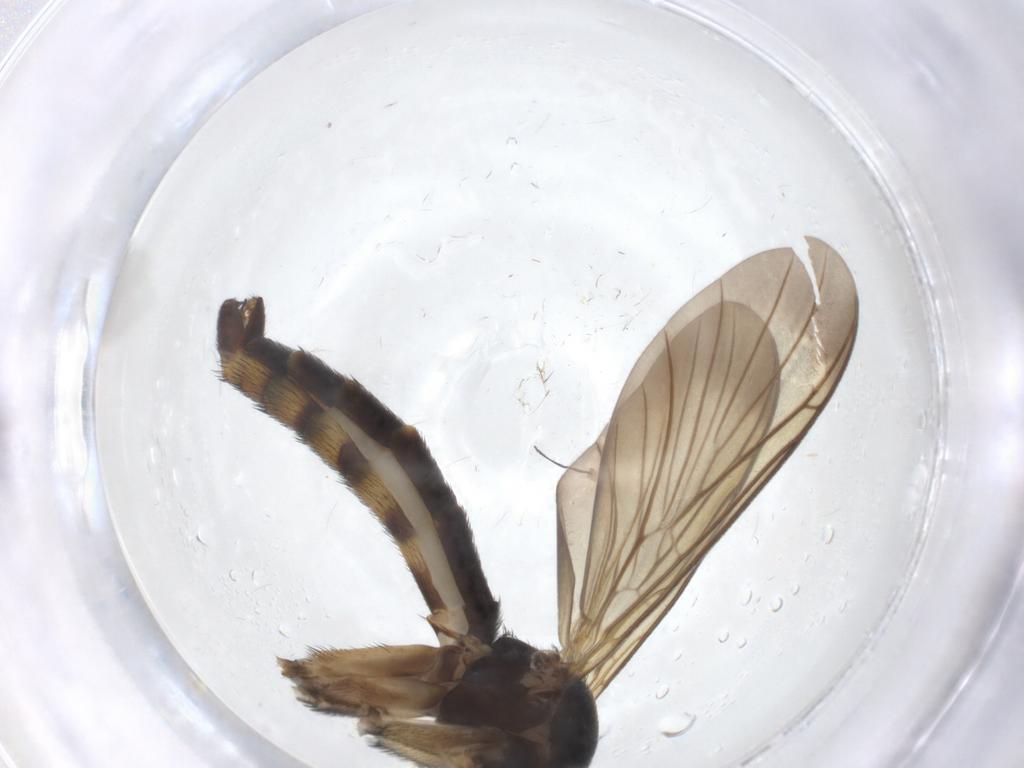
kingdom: Animalia
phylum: Arthropoda
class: Insecta
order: Diptera
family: Keroplatidae
